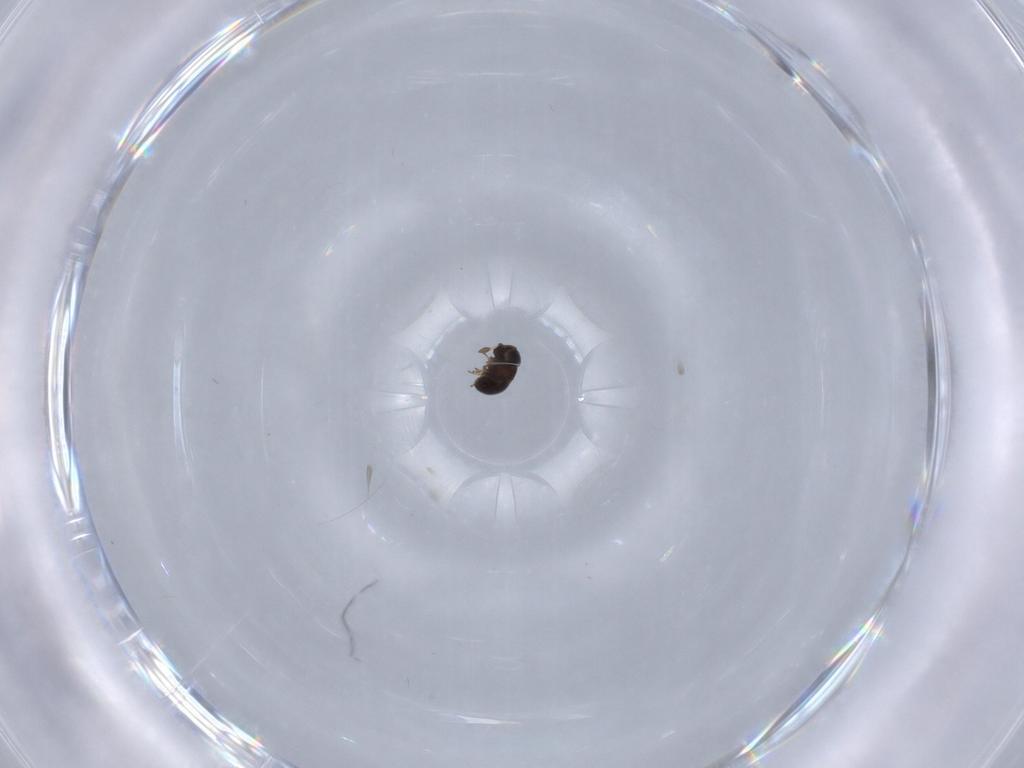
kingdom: Animalia
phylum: Arthropoda
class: Insecta
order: Hymenoptera
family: Scelionidae
